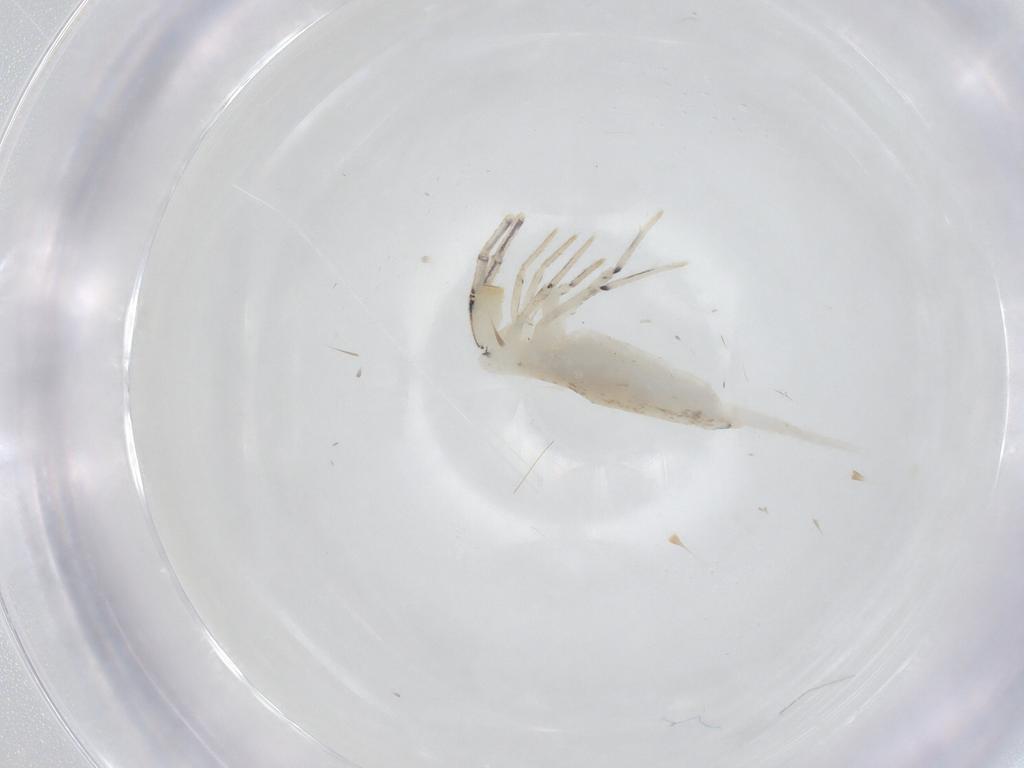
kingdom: Animalia
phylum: Arthropoda
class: Collembola
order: Entomobryomorpha
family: Entomobryidae
